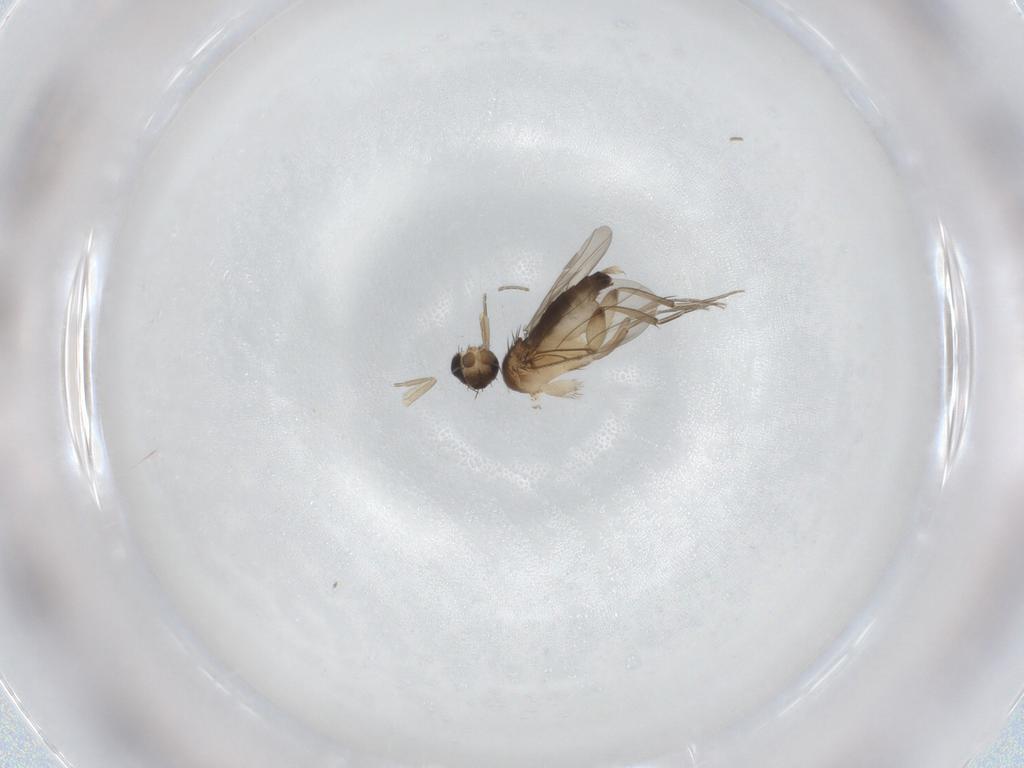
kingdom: Animalia
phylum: Arthropoda
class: Insecta
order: Diptera
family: Phoridae
